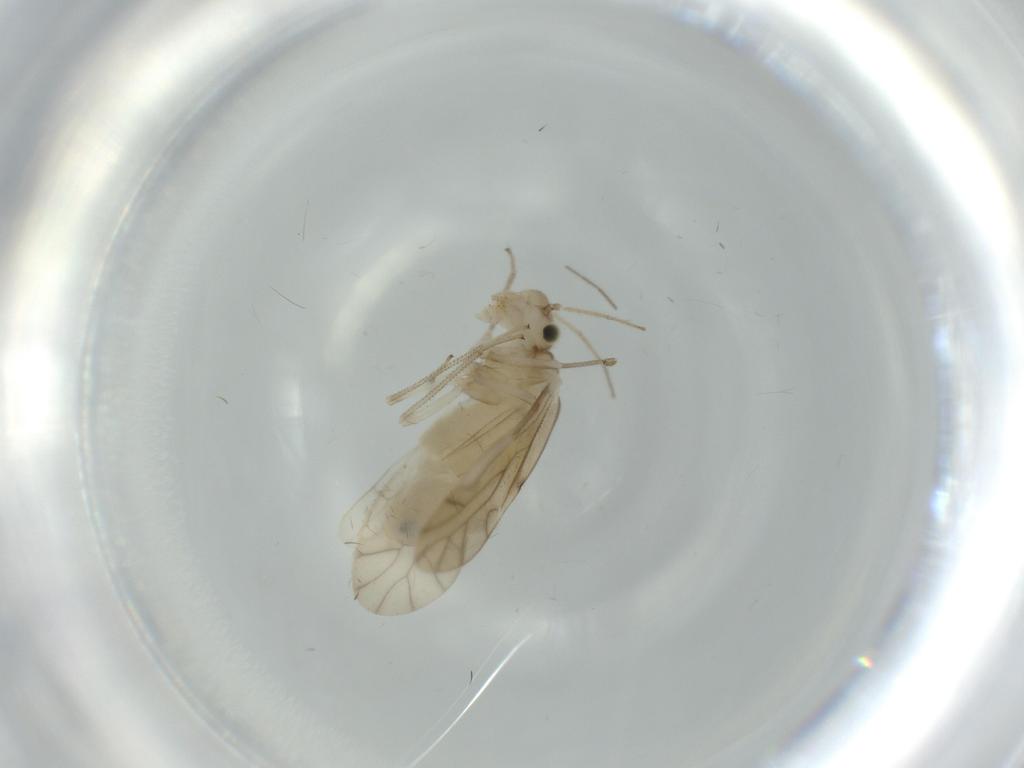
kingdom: Animalia
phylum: Arthropoda
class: Insecta
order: Psocodea
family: Caeciliusidae
